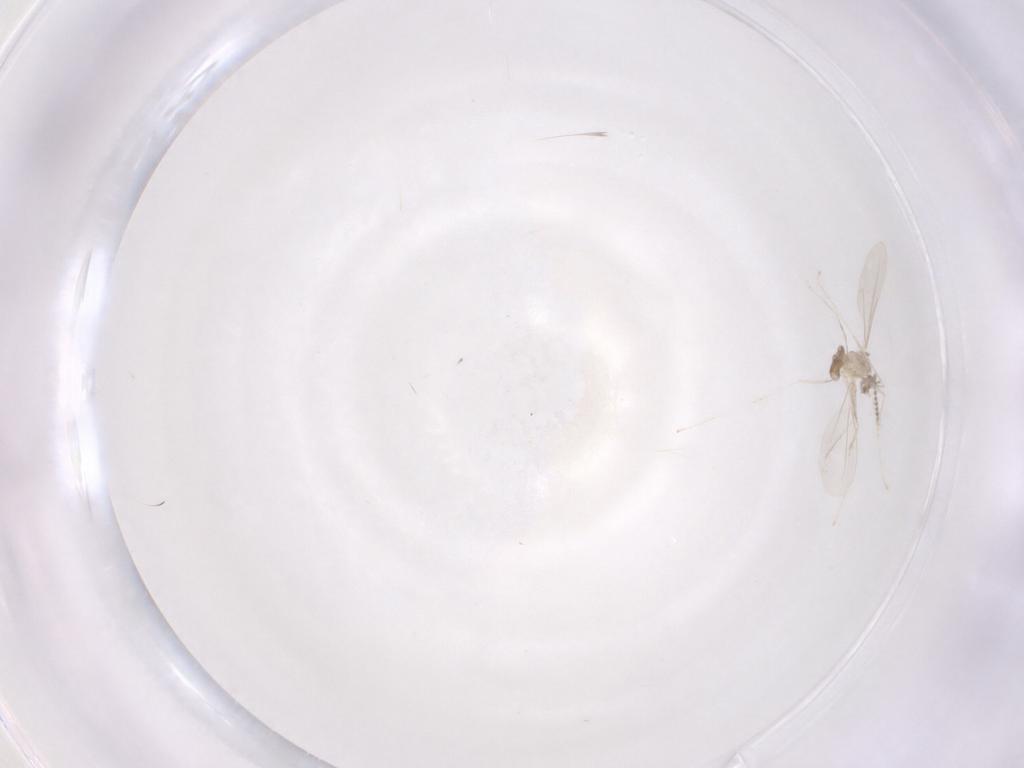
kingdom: Animalia
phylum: Arthropoda
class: Insecta
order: Diptera
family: Cecidomyiidae
